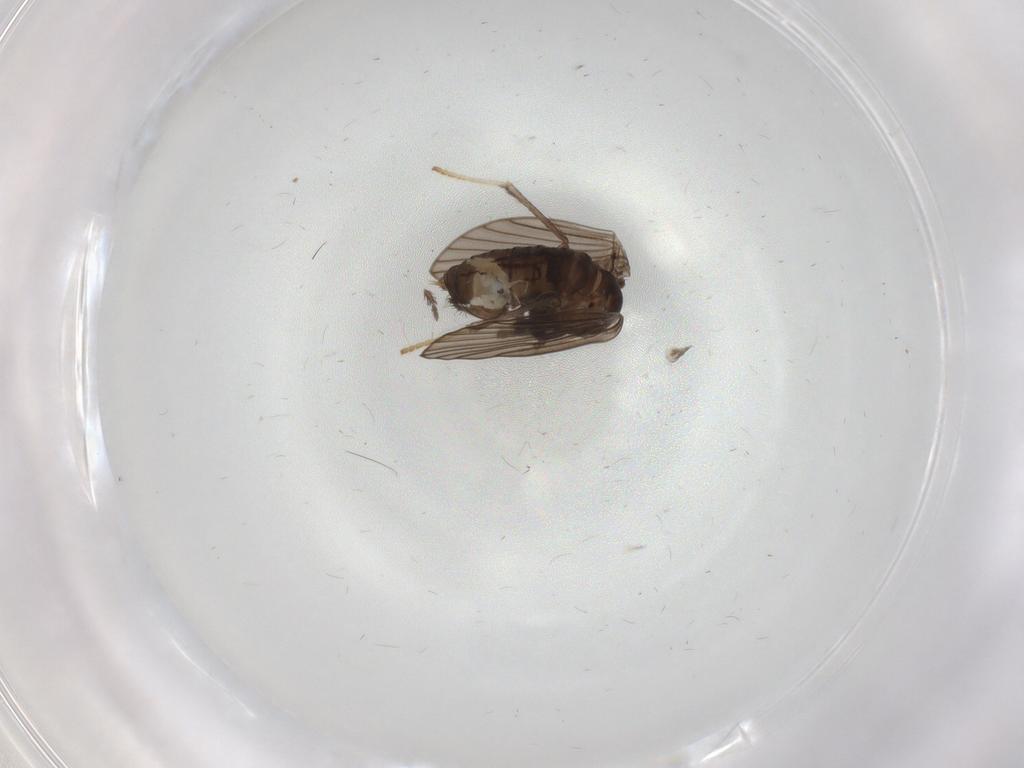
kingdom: Animalia
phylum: Arthropoda
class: Insecta
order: Diptera
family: Psychodidae
